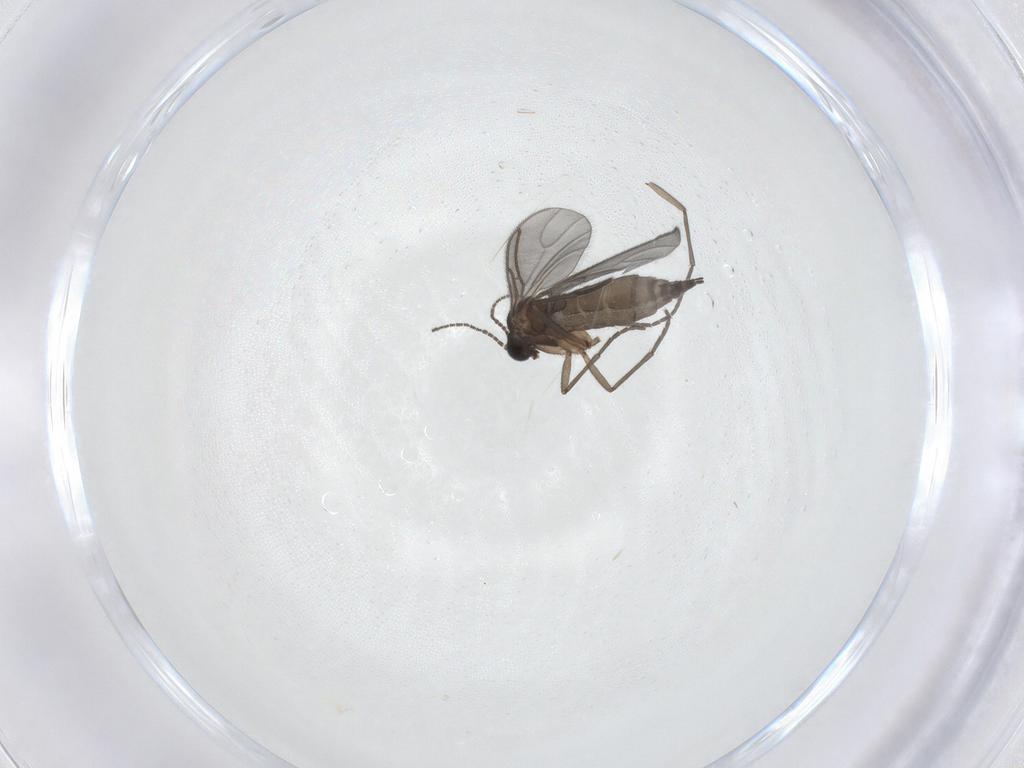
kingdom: Animalia
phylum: Arthropoda
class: Insecta
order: Diptera
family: Sciaridae
